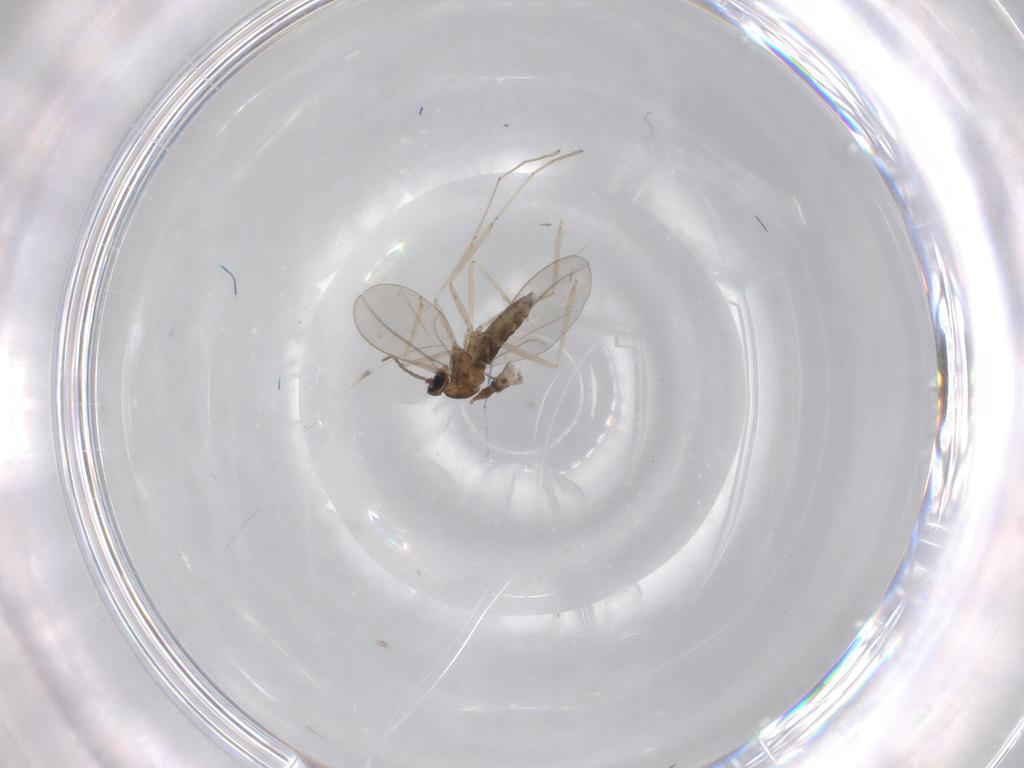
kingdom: Animalia
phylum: Arthropoda
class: Insecta
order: Diptera
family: Cecidomyiidae
